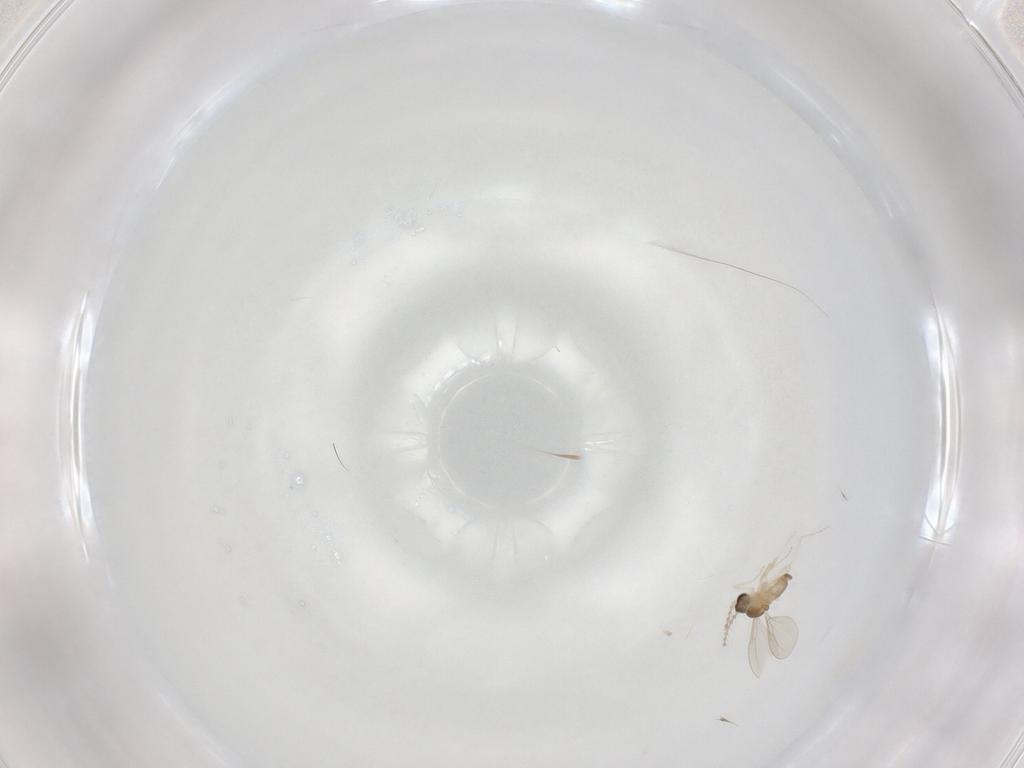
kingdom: Animalia
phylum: Arthropoda
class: Insecta
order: Diptera
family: Cecidomyiidae
